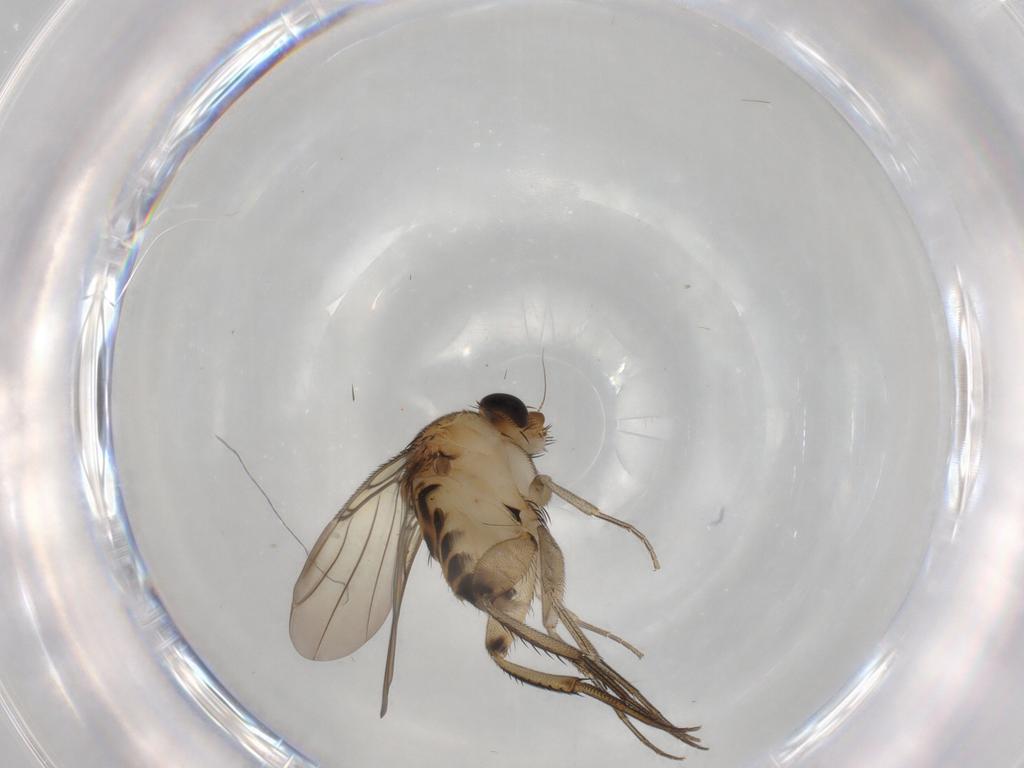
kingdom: Animalia
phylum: Arthropoda
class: Insecta
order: Diptera
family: Phoridae
